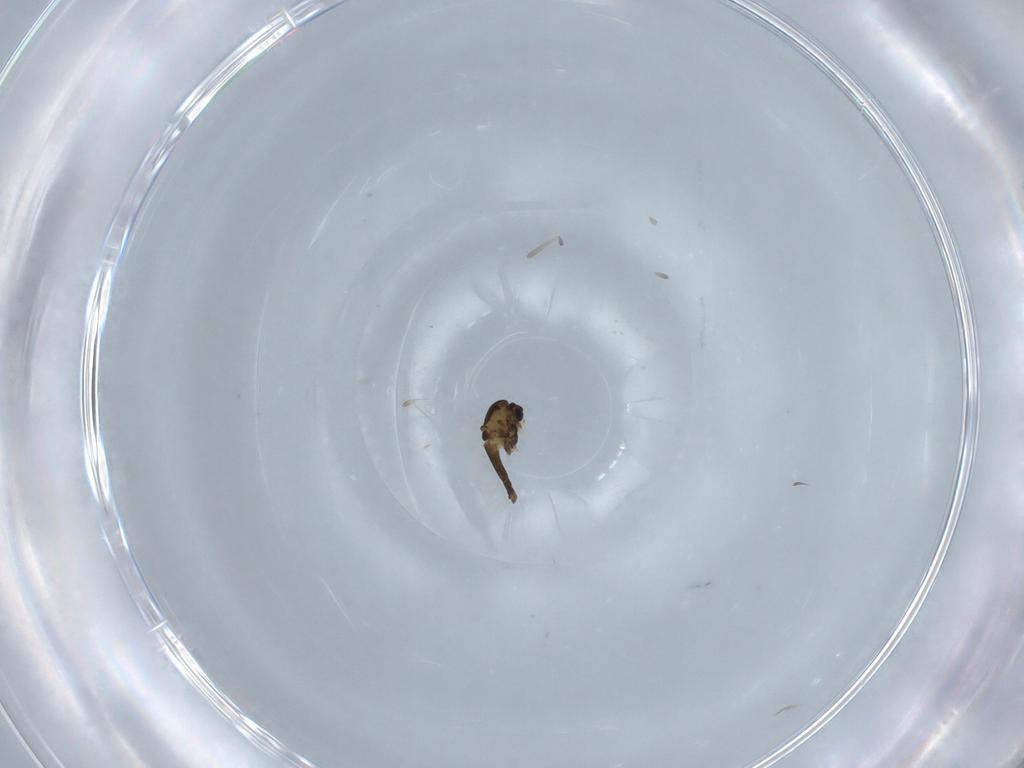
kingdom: Animalia
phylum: Arthropoda
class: Insecta
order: Diptera
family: Chironomidae
